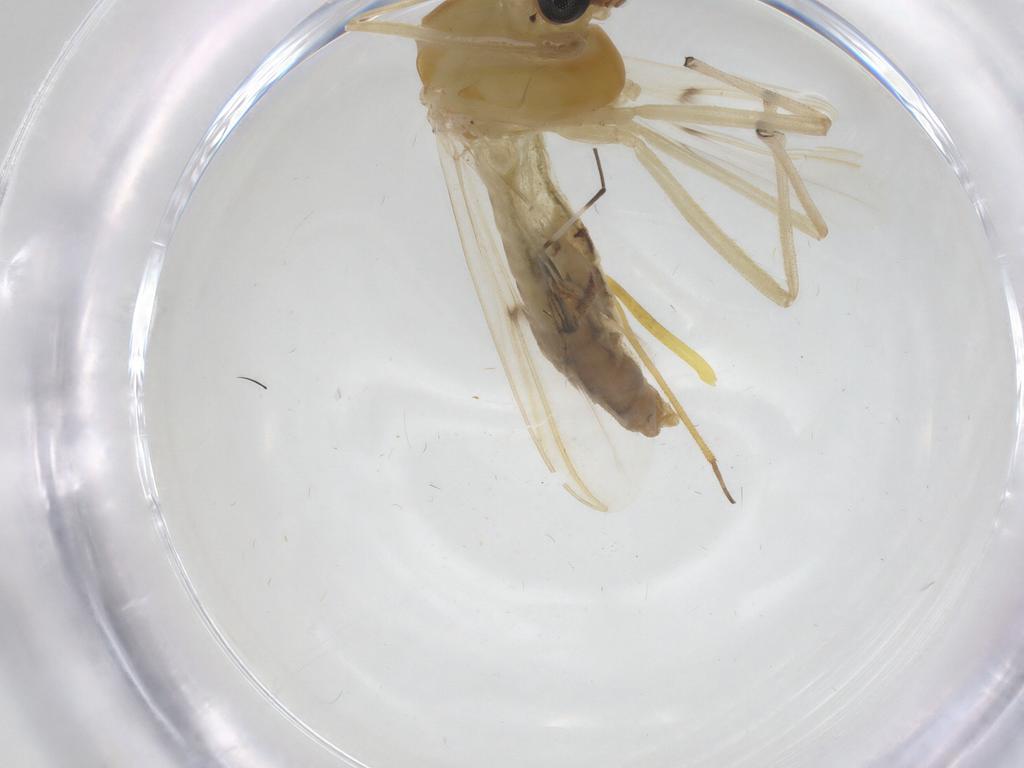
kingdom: Animalia
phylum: Arthropoda
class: Insecta
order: Diptera
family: Chironomidae
